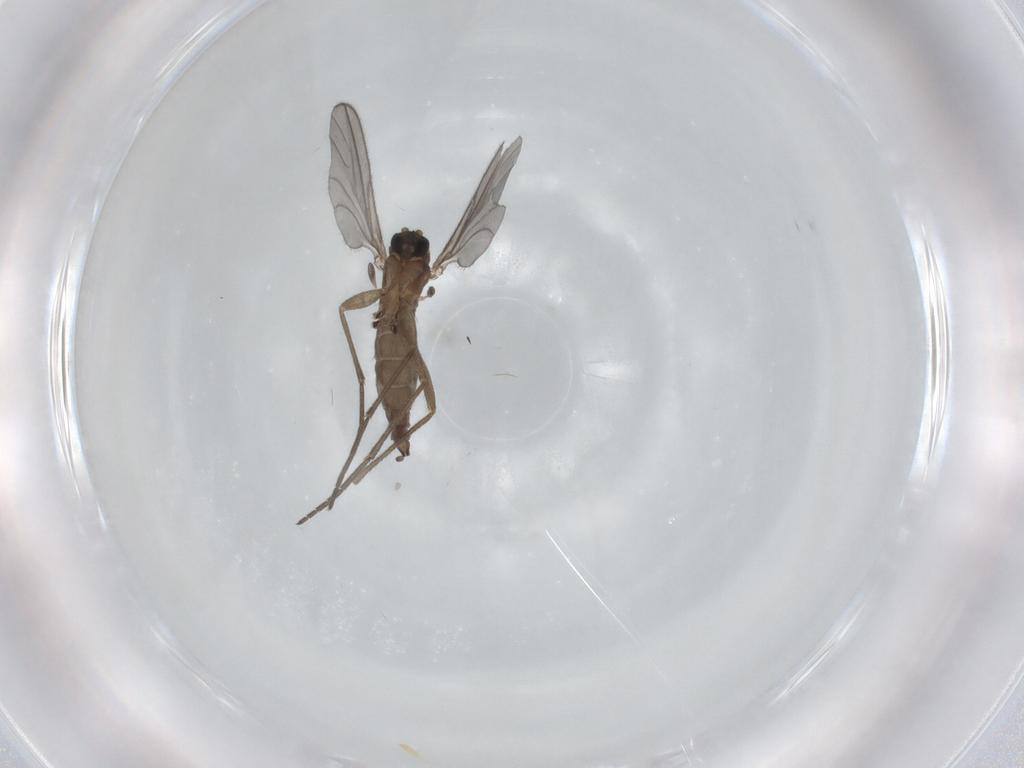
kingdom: Animalia
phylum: Arthropoda
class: Insecta
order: Diptera
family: Sciaridae
